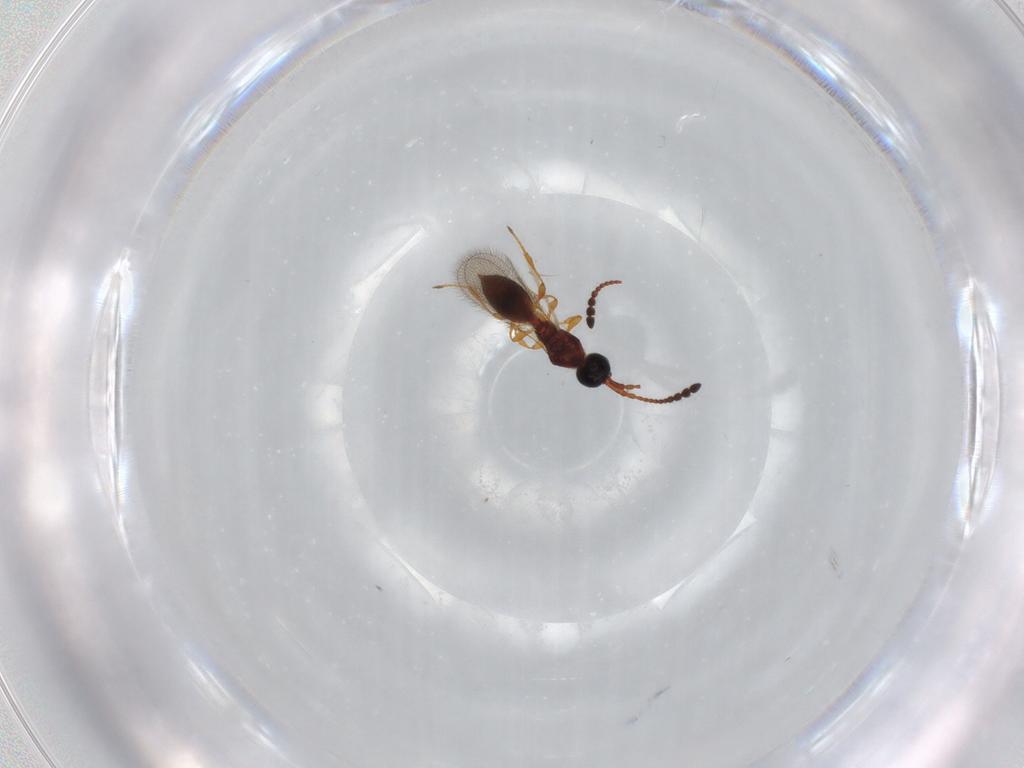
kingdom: Animalia
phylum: Arthropoda
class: Insecta
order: Hymenoptera
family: Diapriidae
